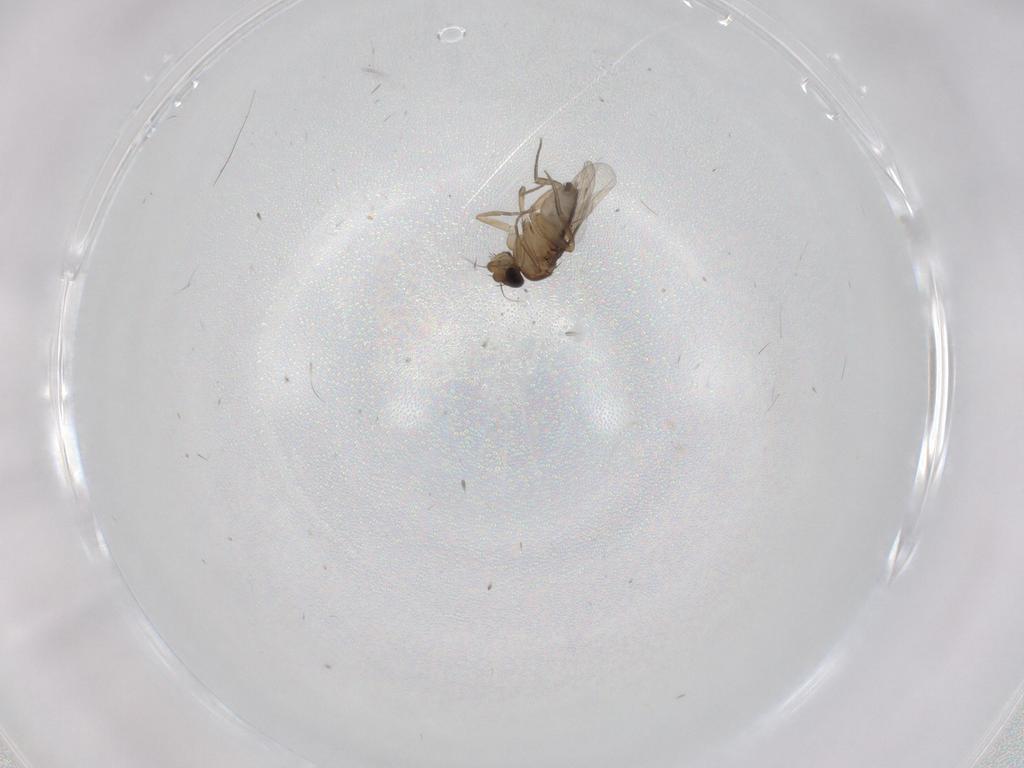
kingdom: Animalia
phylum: Arthropoda
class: Insecta
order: Diptera
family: Phoridae
